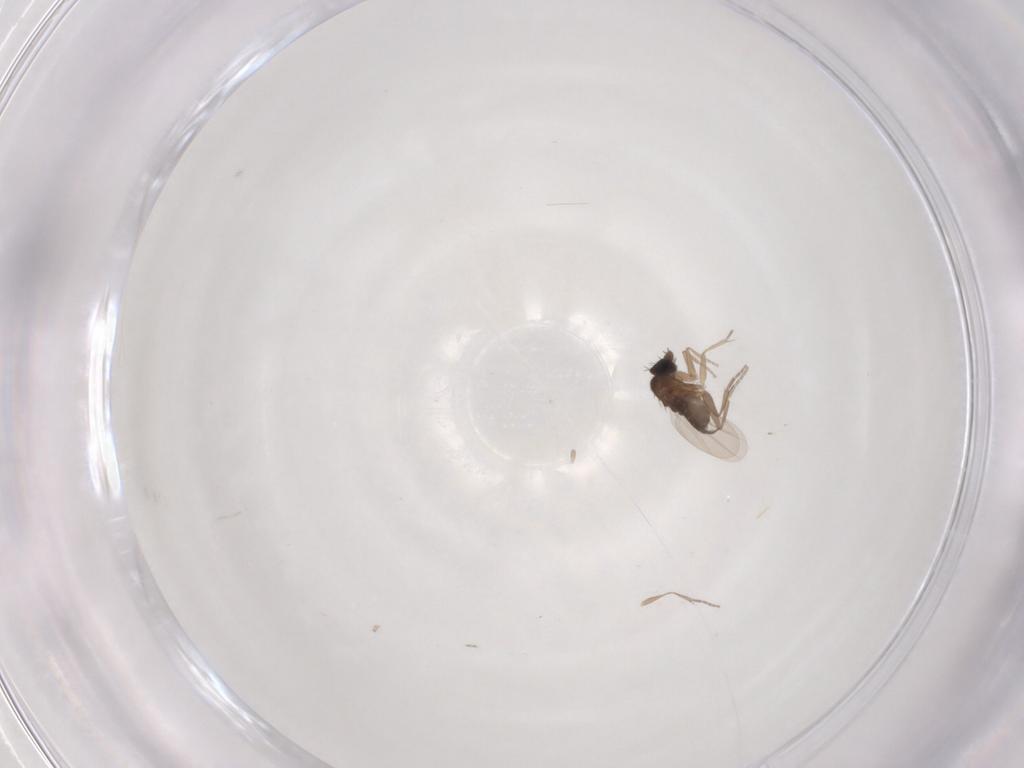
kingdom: Animalia
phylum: Arthropoda
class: Insecta
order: Diptera
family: Phoridae
